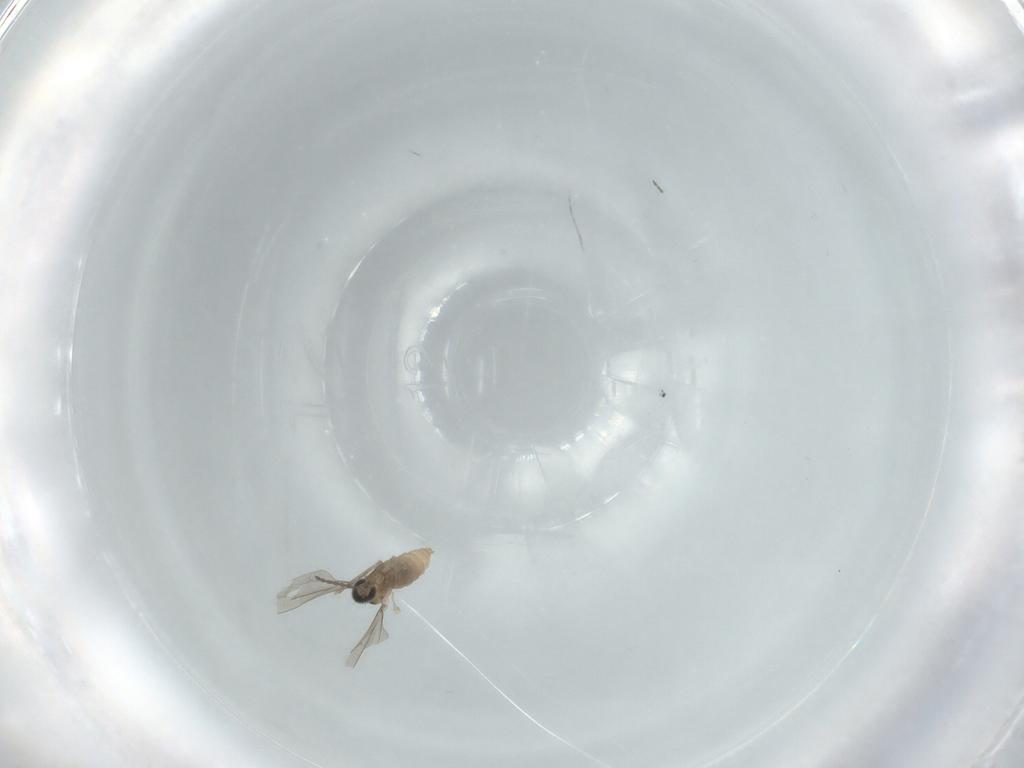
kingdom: Animalia
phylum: Arthropoda
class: Insecta
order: Diptera
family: Cecidomyiidae
